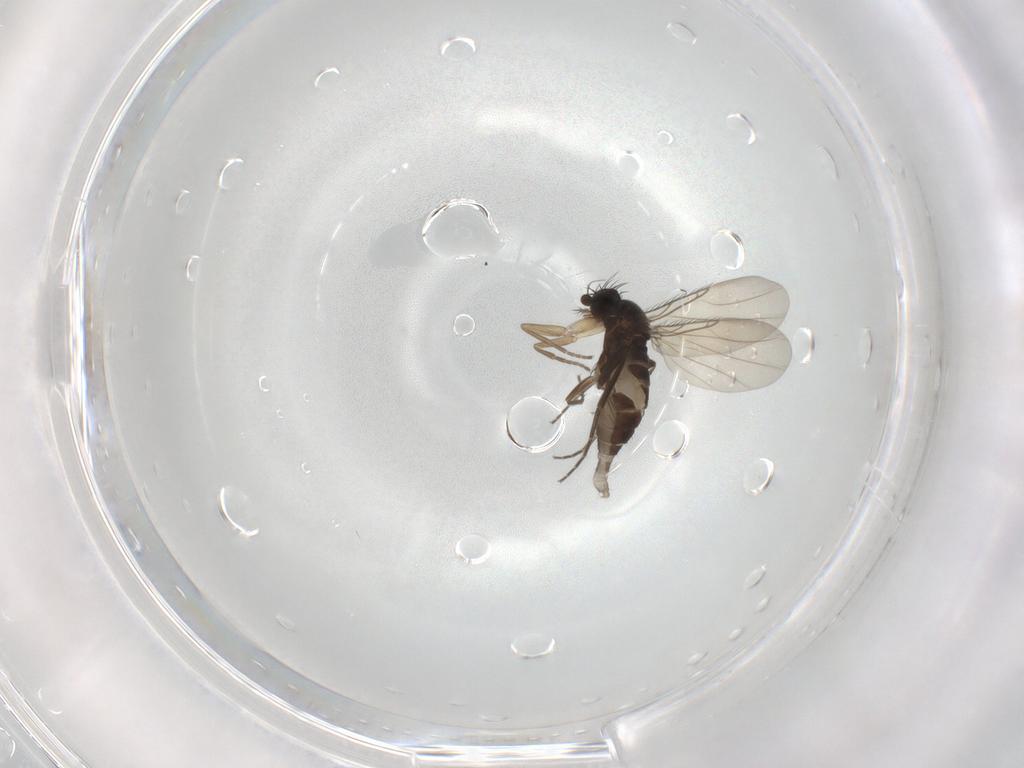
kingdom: Animalia
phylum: Arthropoda
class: Insecta
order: Diptera
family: Phoridae
